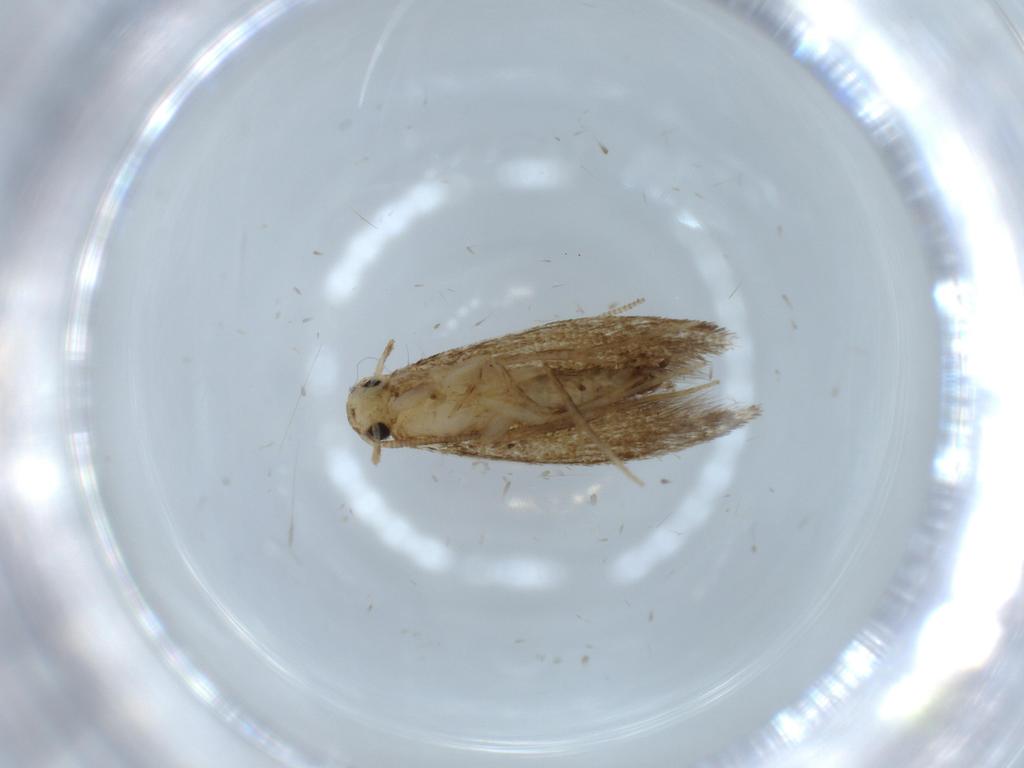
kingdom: Animalia
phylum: Arthropoda
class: Insecta
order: Lepidoptera
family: Tineidae
